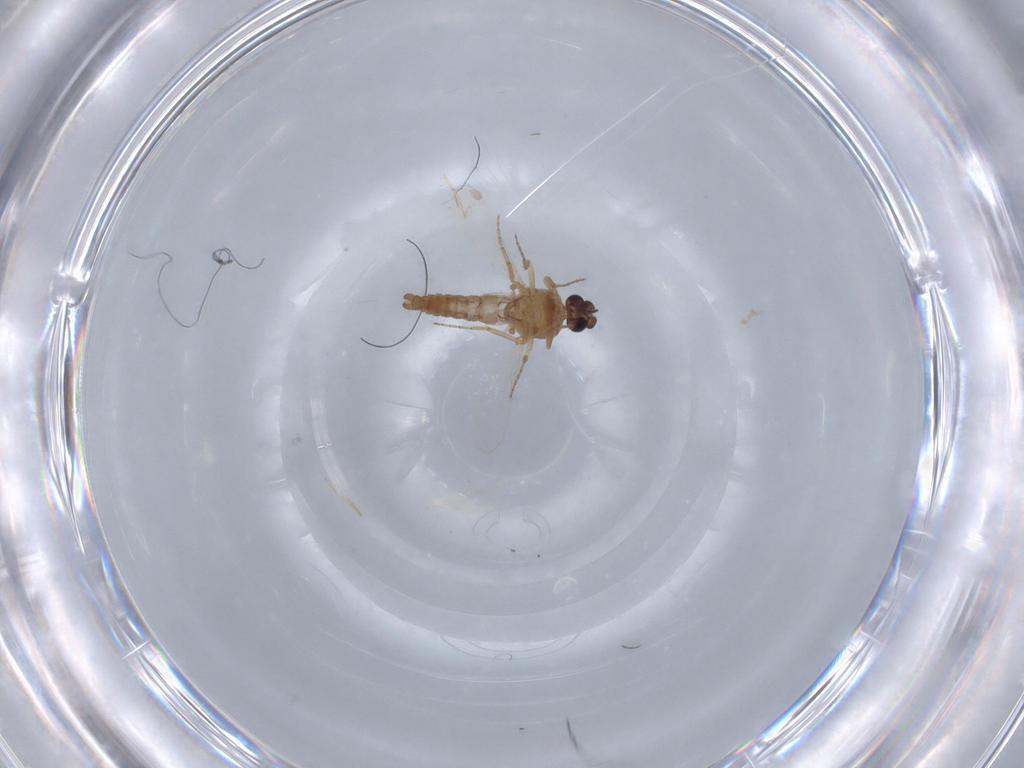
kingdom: Animalia
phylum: Arthropoda
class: Insecta
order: Diptera
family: Ceratopogonidae
